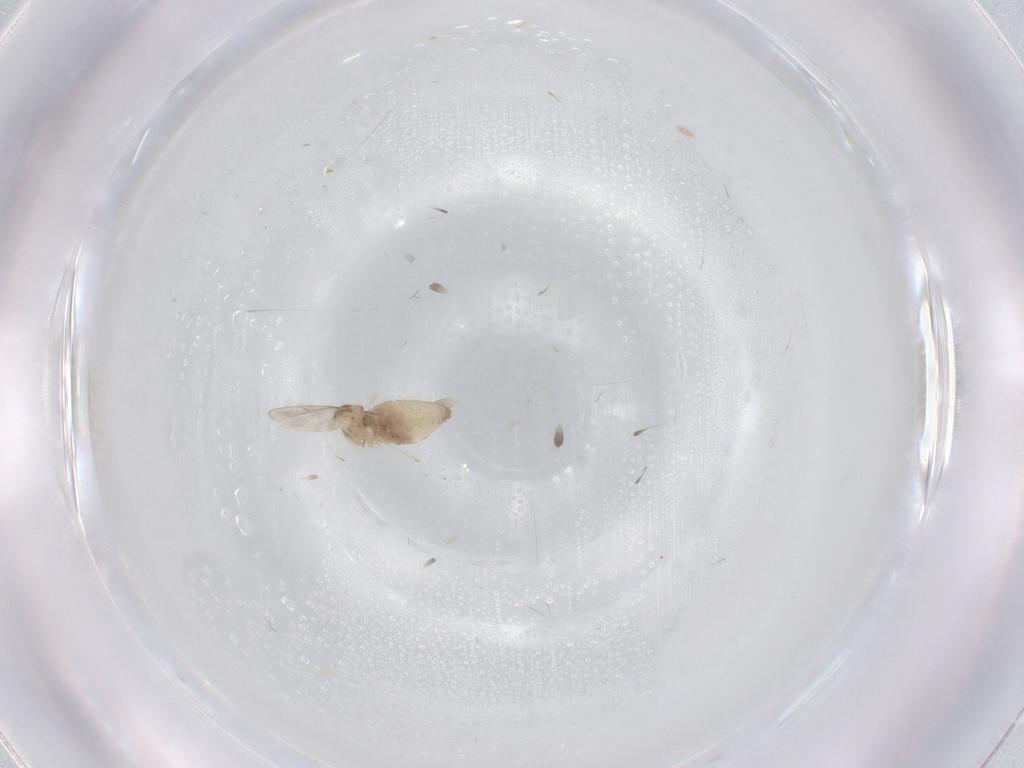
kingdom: Animalia
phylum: Arthropoda
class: Insecta
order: Diptera
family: Cecidomyiidae
